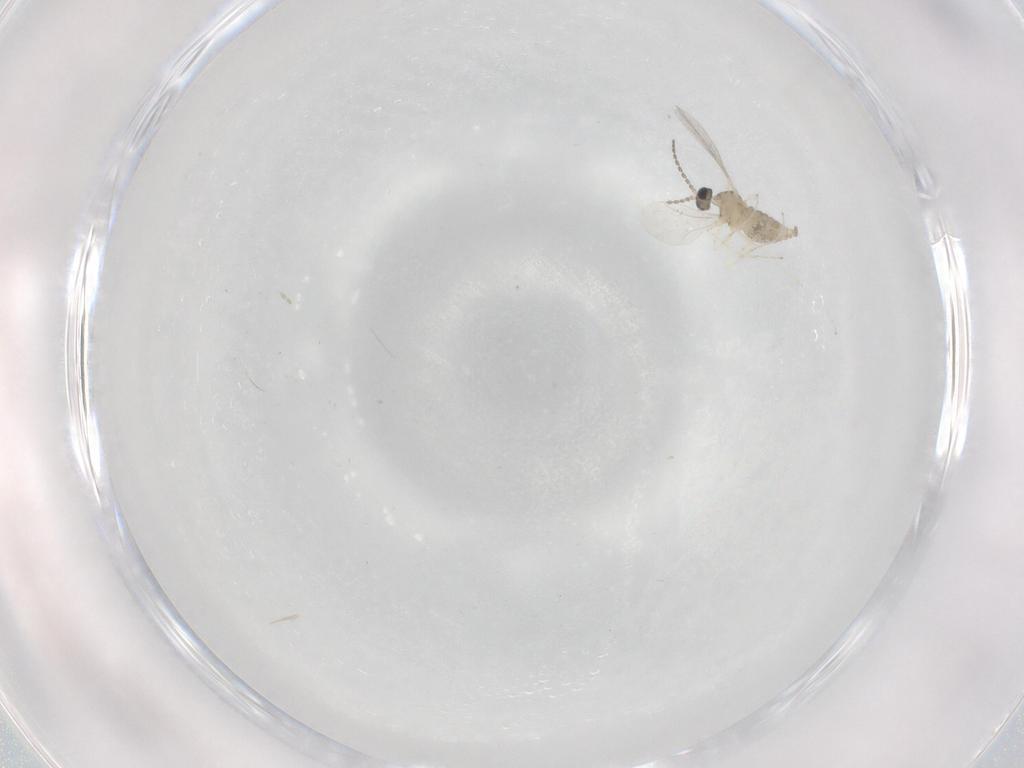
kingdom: Animalia
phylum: Arthropoda
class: Insecta
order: Diptera
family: Cecidomyiidae
